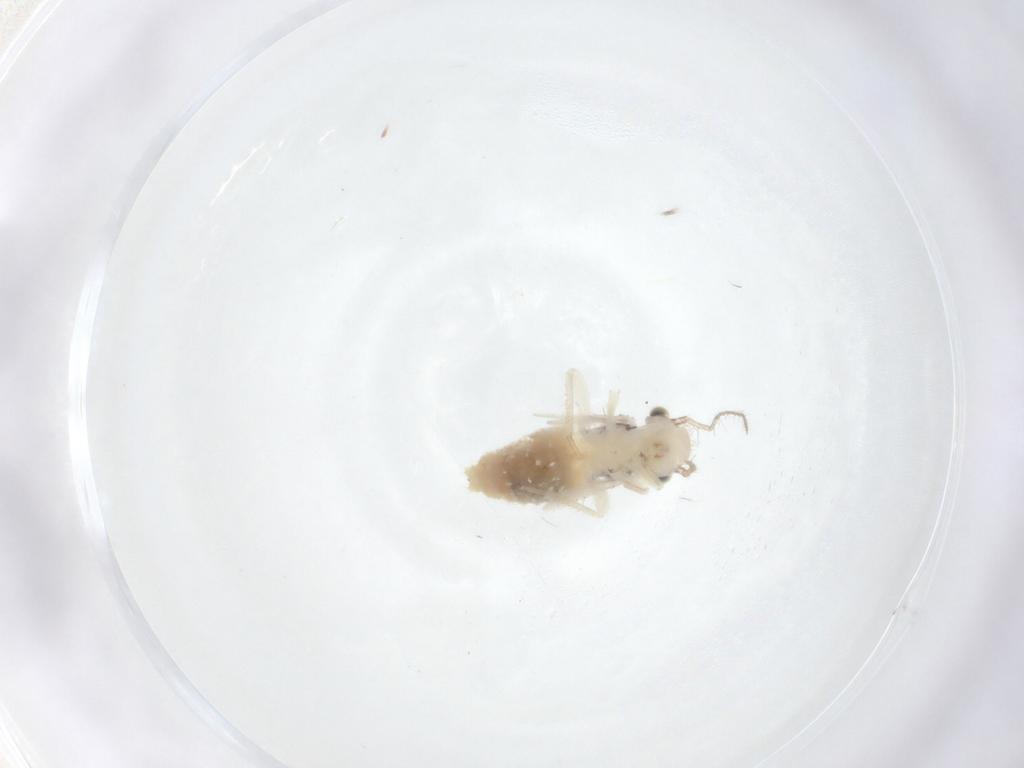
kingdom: Animalia
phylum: Arthropoda
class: Insecta
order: Psocodea
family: Pseudocaeciliidae
